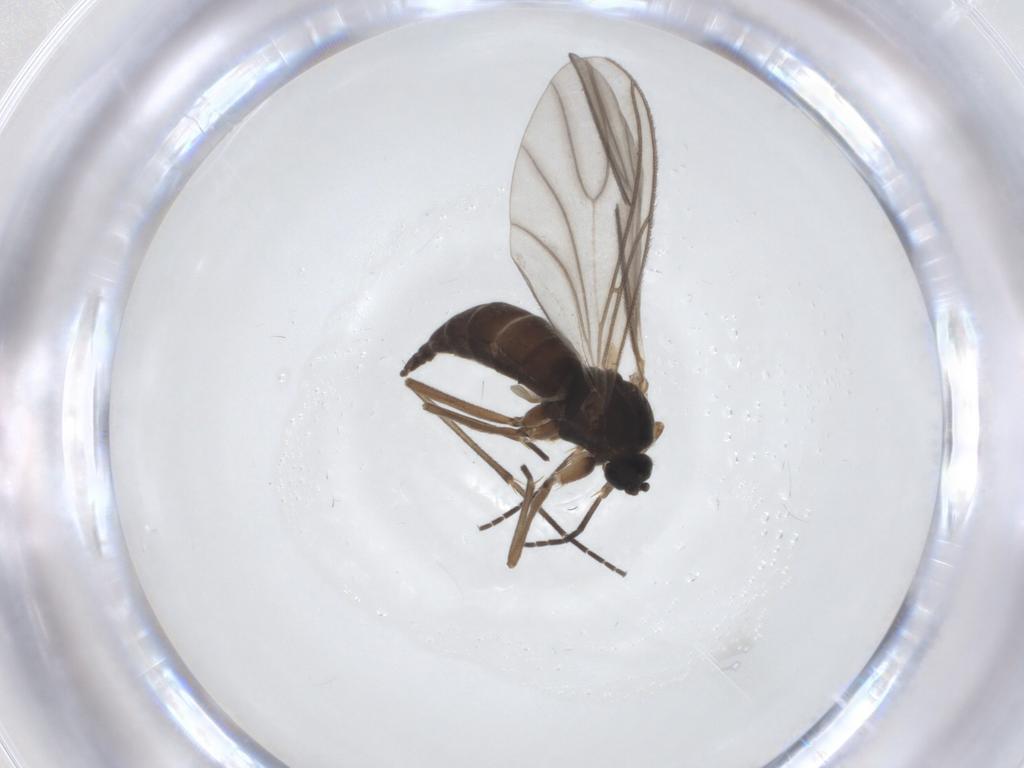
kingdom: Animalia
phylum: Arthropoda
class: Insecta
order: Diptera
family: Sciaridae
